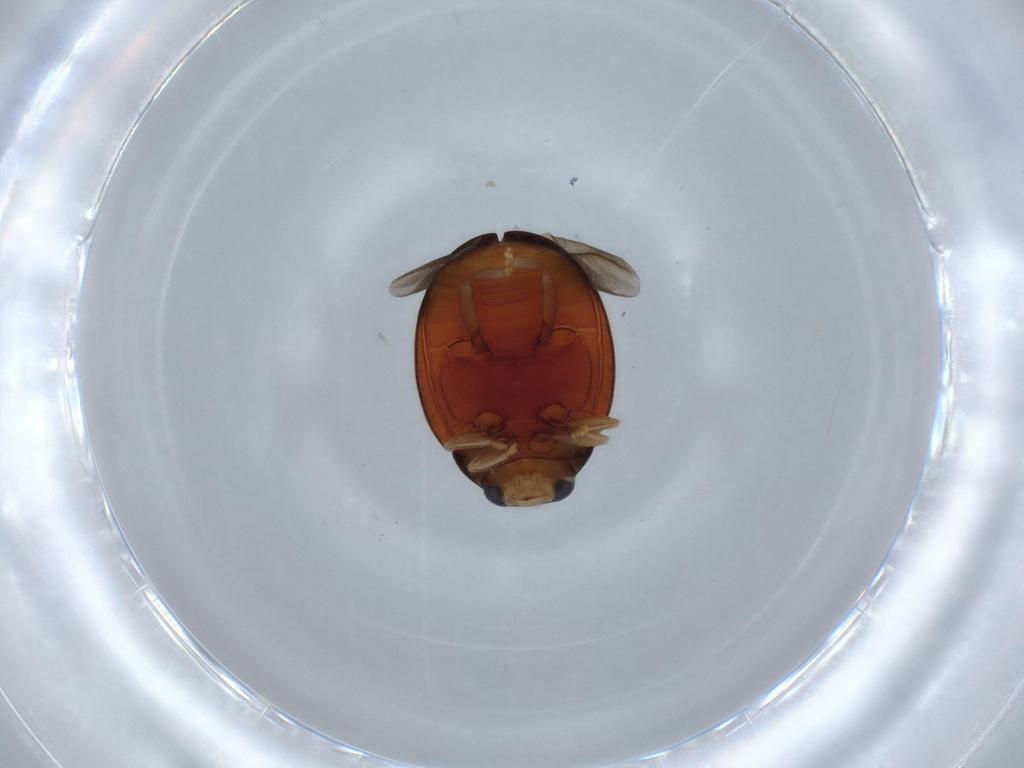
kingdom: Animalia
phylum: Arthropoda
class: Insecta
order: Coleoptera
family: Coccinellidae
